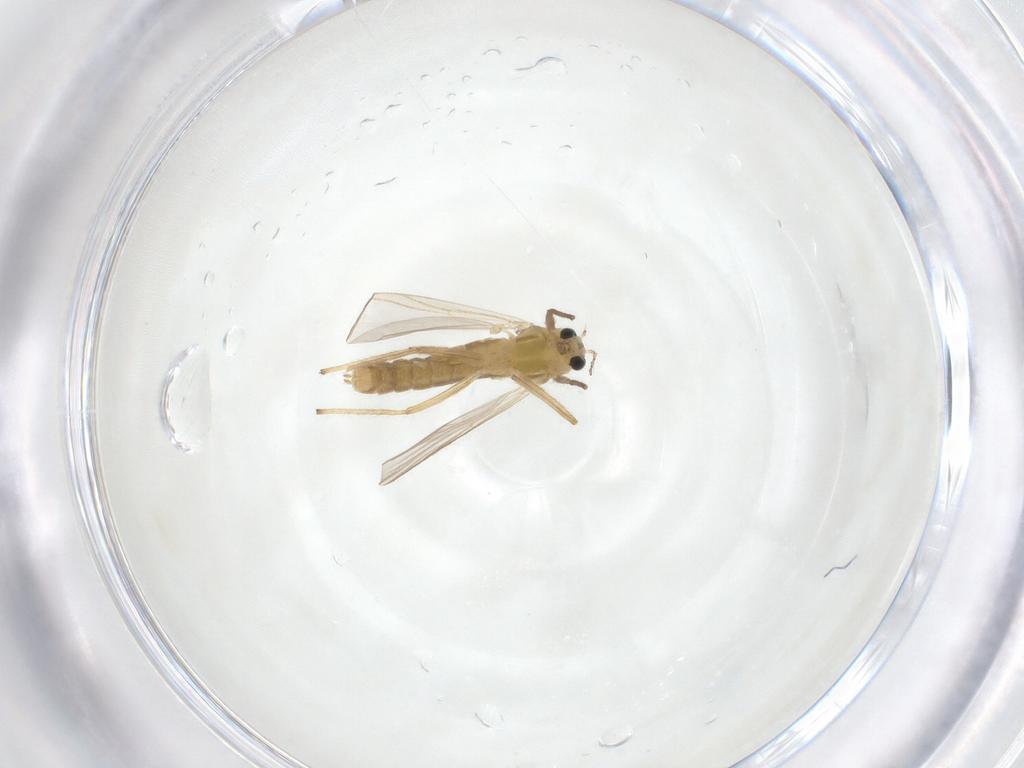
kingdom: Animalia
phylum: Arthropoda
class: Insecta
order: Diptera
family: Chironomidae
